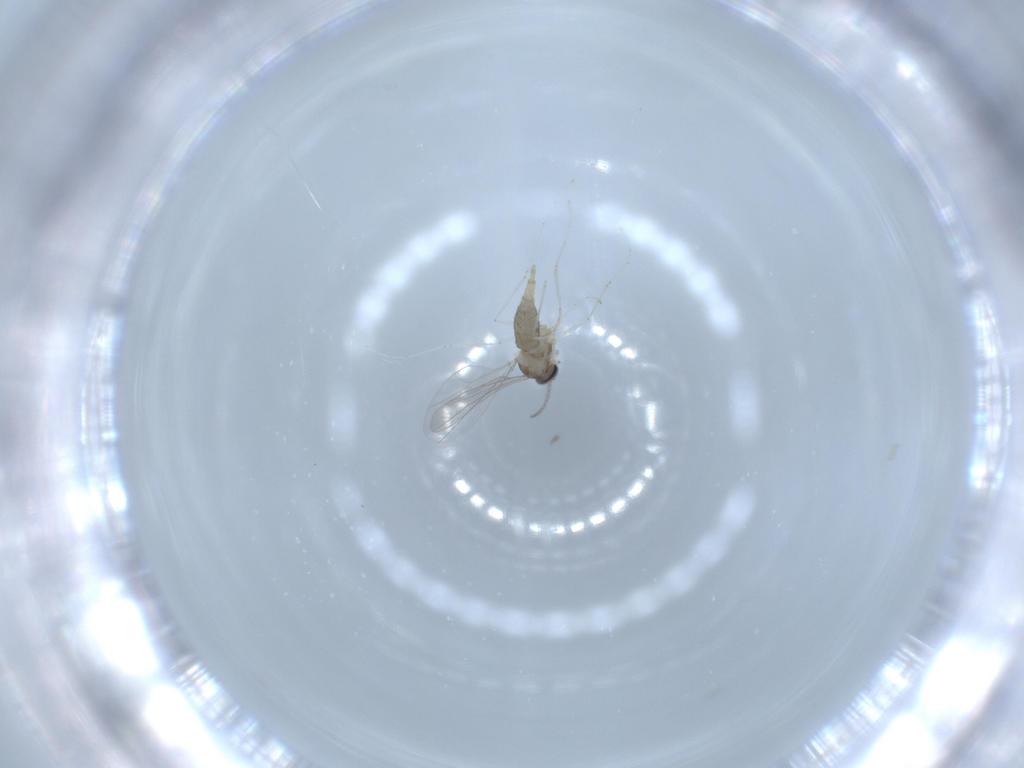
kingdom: Animalia
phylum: Arthropoda
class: Insecta
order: Diptera
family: Cecidomyiidae
